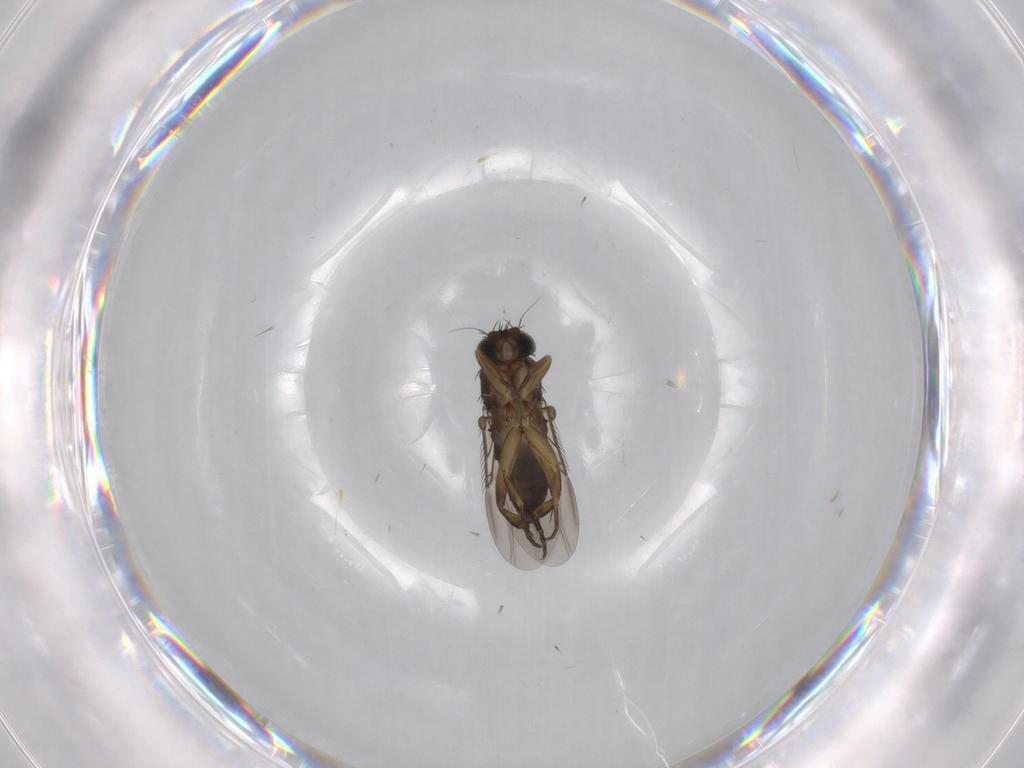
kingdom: Animalia
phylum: Arthropoda
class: Insecta
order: Diptera
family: Phoridae
